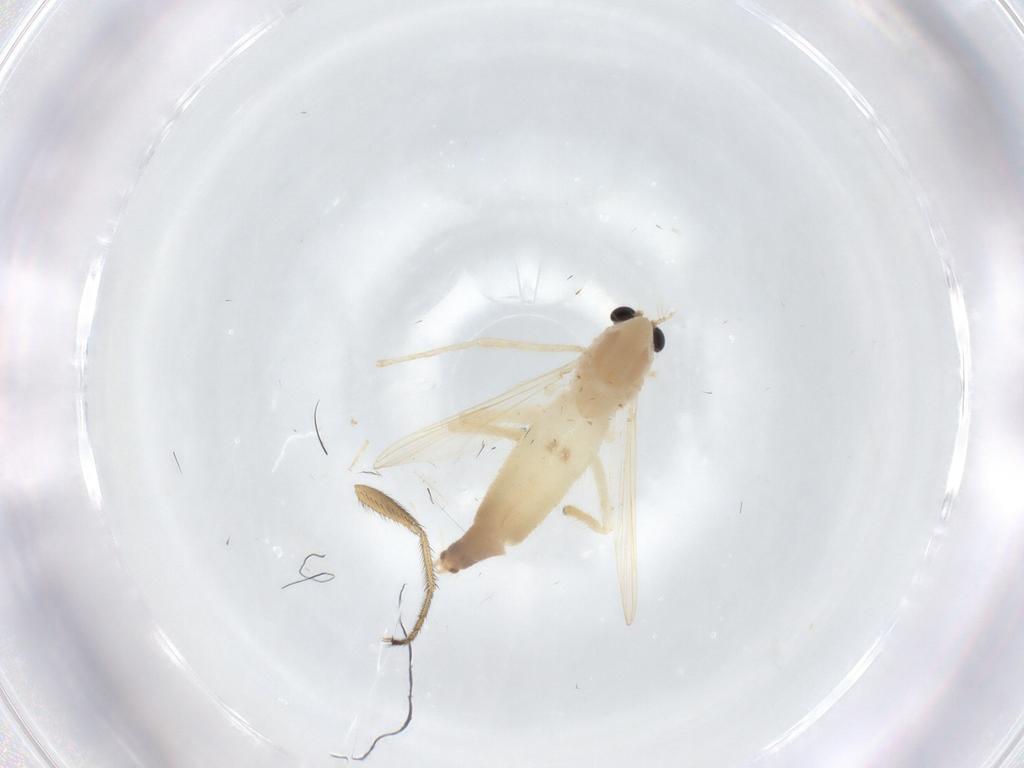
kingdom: Animalia
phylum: Arthropoda
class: Insecta
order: Diptera
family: Chironomidae
